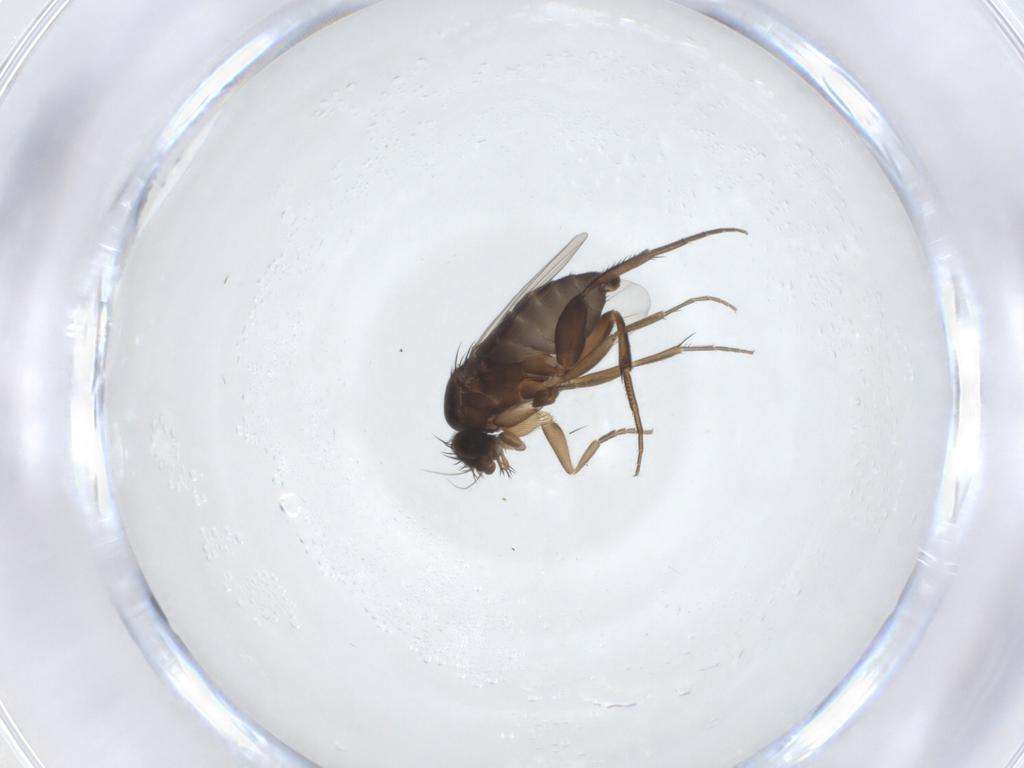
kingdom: Animalia
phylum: Arthropoda
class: Insecta
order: Diptera
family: Phoridae
